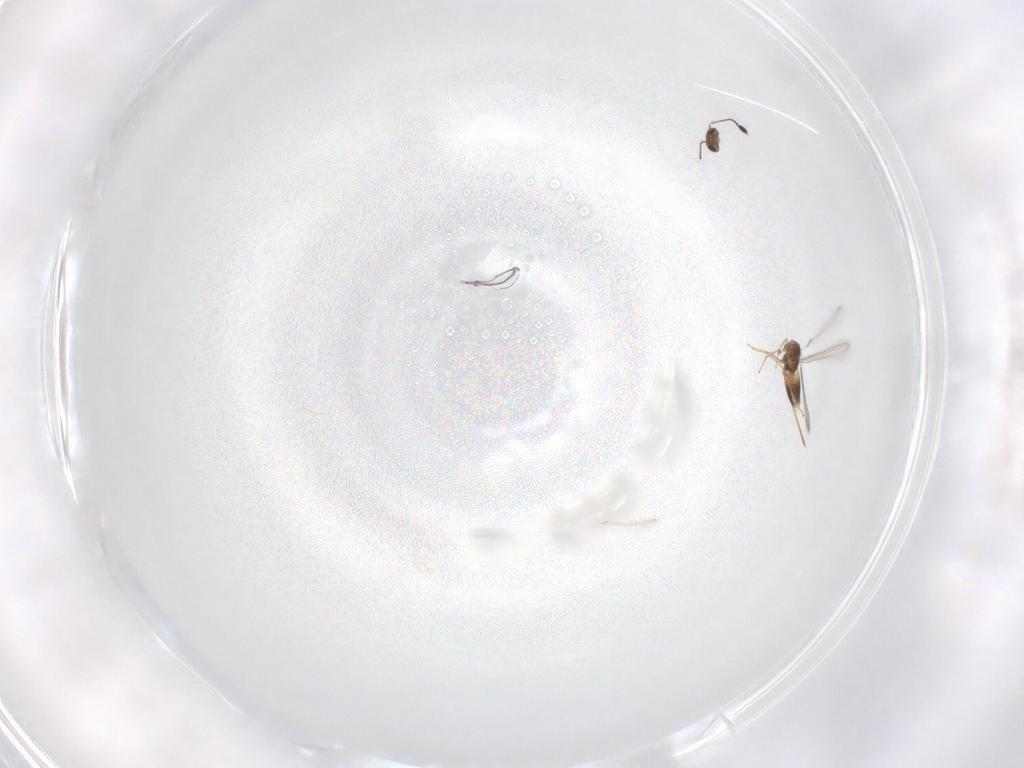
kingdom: Animalia
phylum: Arthropoda
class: Insecta
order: Hymenoptera
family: Mymaridae
